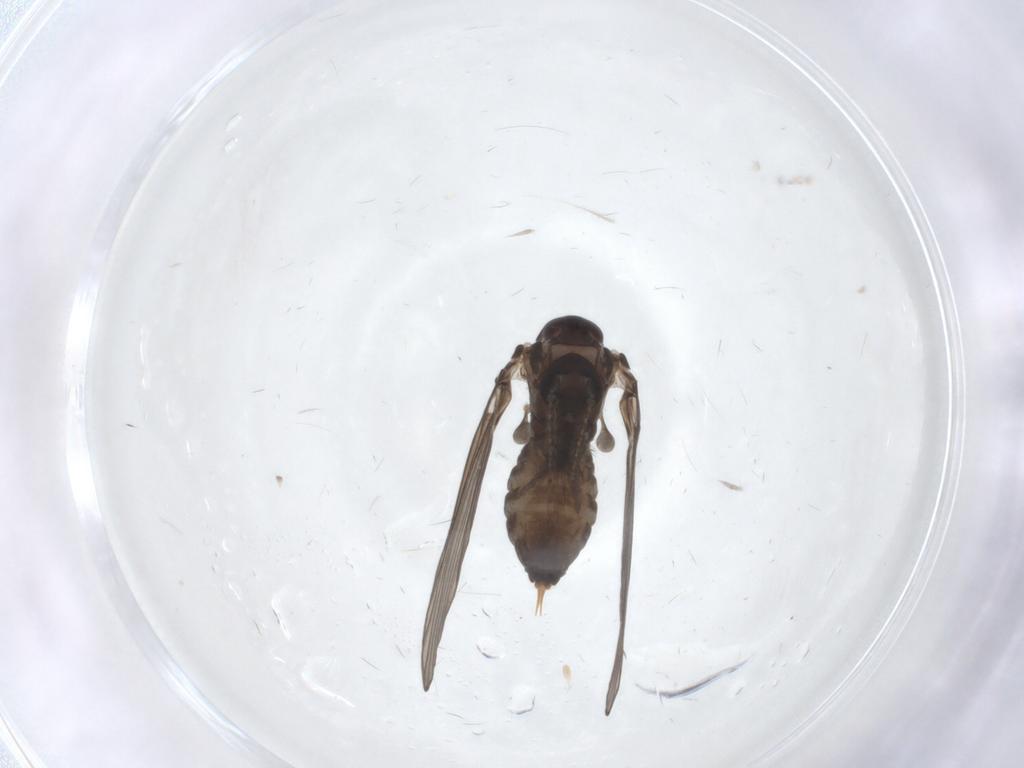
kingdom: Animalia
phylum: Arthropoda
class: Insecta
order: Diptera
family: Psychodidae
